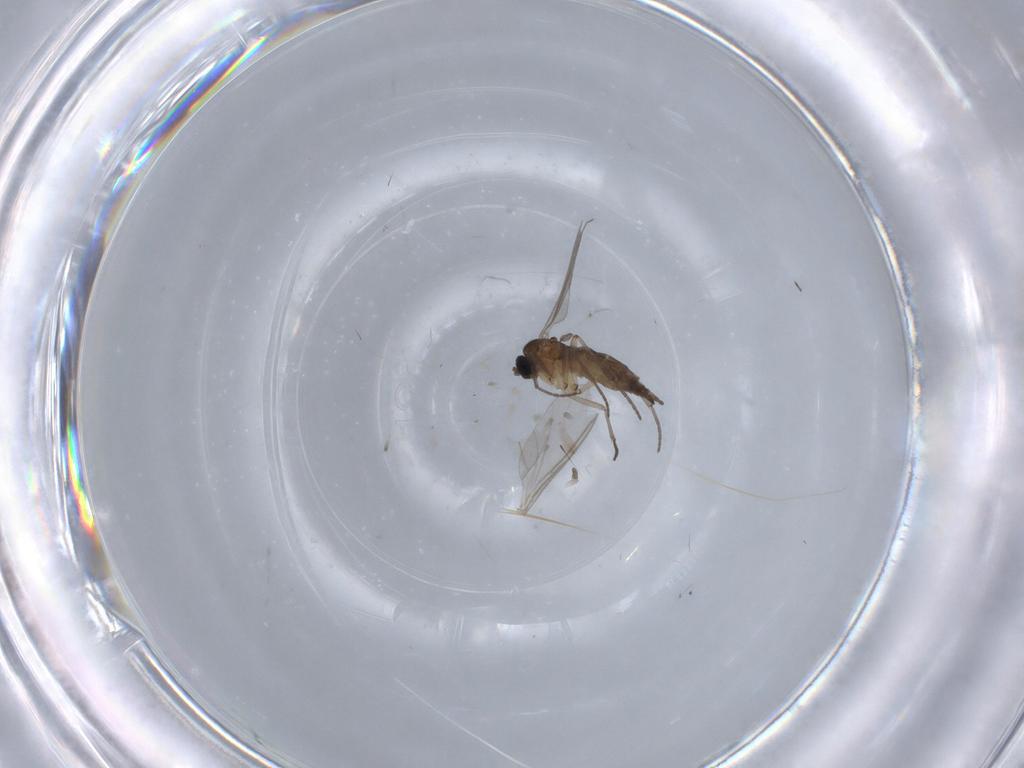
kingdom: Animalia
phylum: Arthropoda
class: Insecta
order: Diptera
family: Chironomidae
